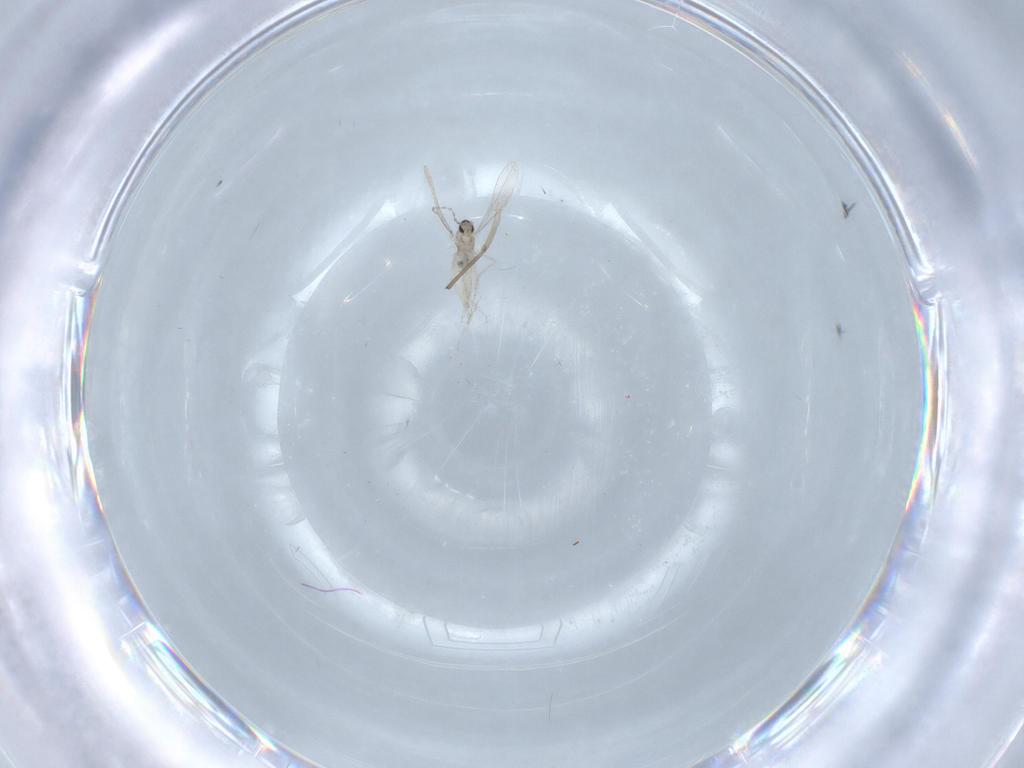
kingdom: Animalia
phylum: Arthropoda
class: Insecta
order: Diptera
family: Cecidomyiidae
